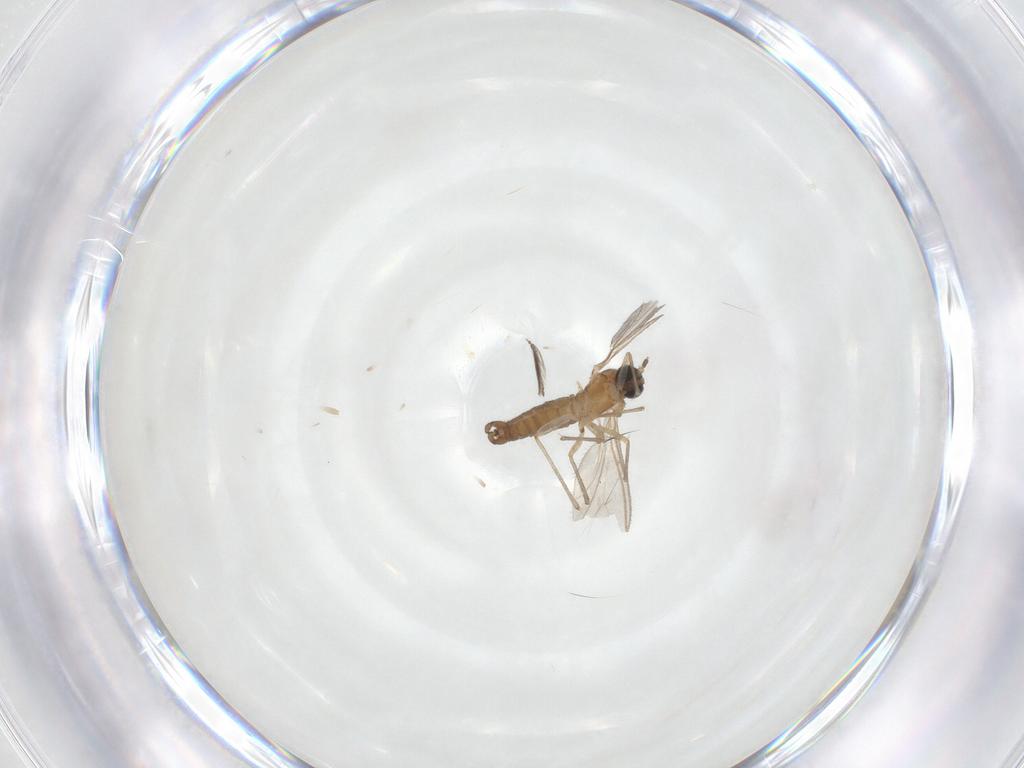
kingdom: Animalia
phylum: Arthropoda
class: Insecta
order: Diptera
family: Sciaridae
